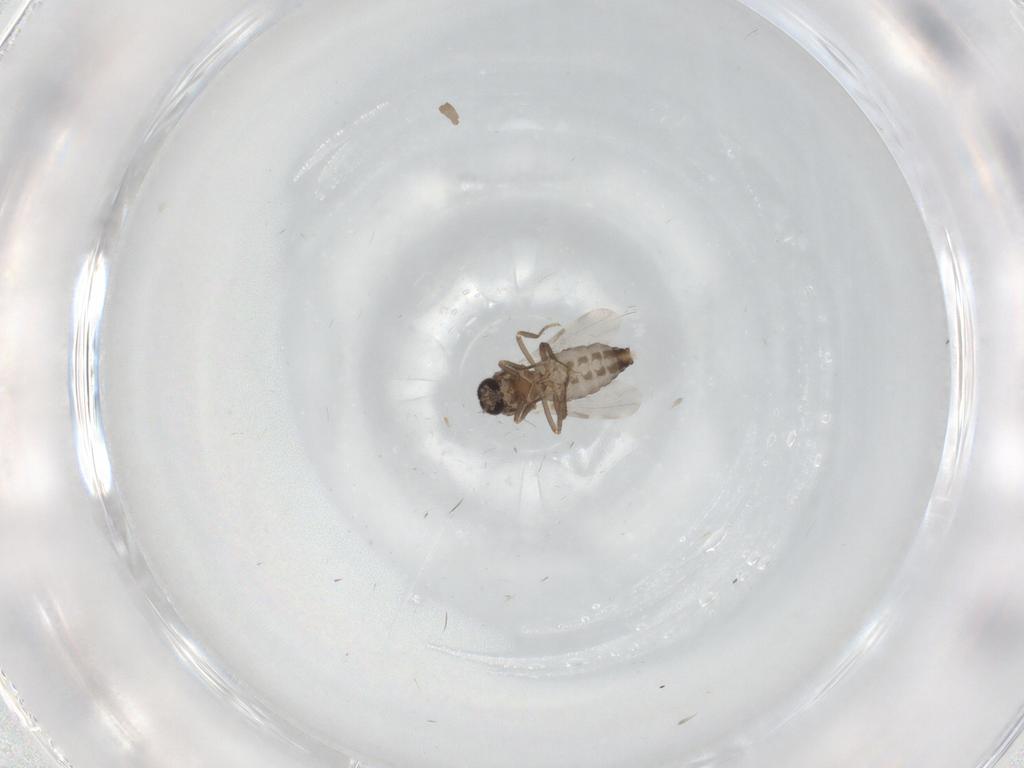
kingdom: Animalia
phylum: Arthropoda
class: Insecta
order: Diptera
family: Ceratopogonidae
